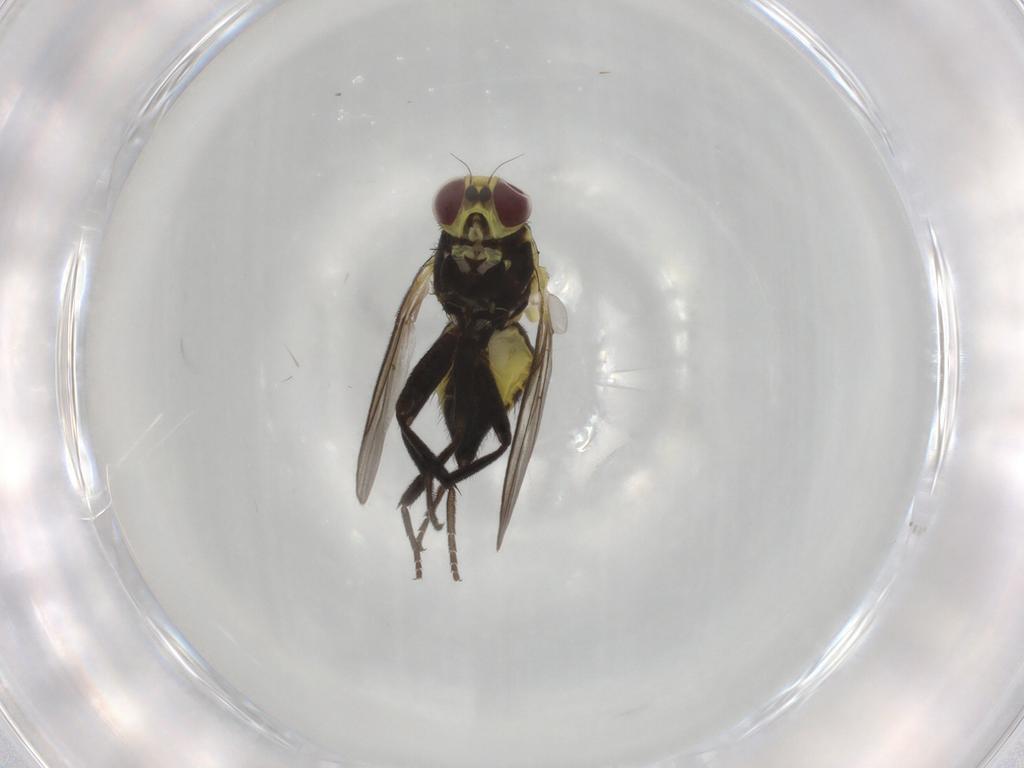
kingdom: Animalia
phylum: Arthropoda
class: Insecta
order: Diptera
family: Agromyzidae
